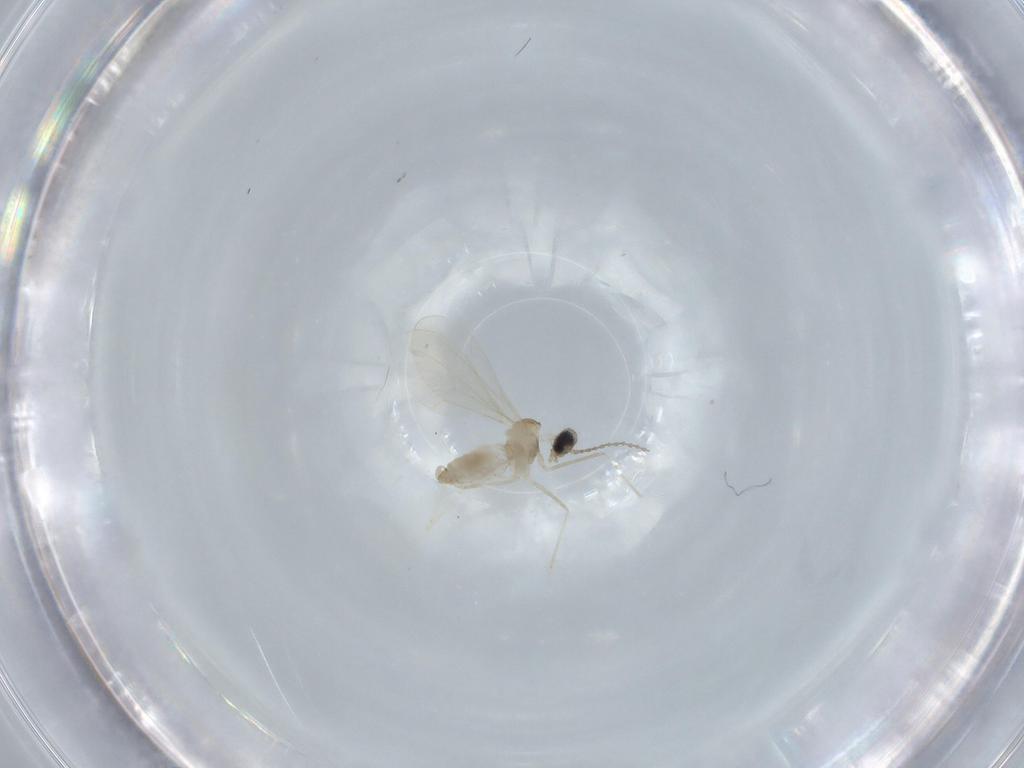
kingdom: Animalia
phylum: Arthropoda
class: Insecta
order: Diptera
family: Cecidomyiidae
